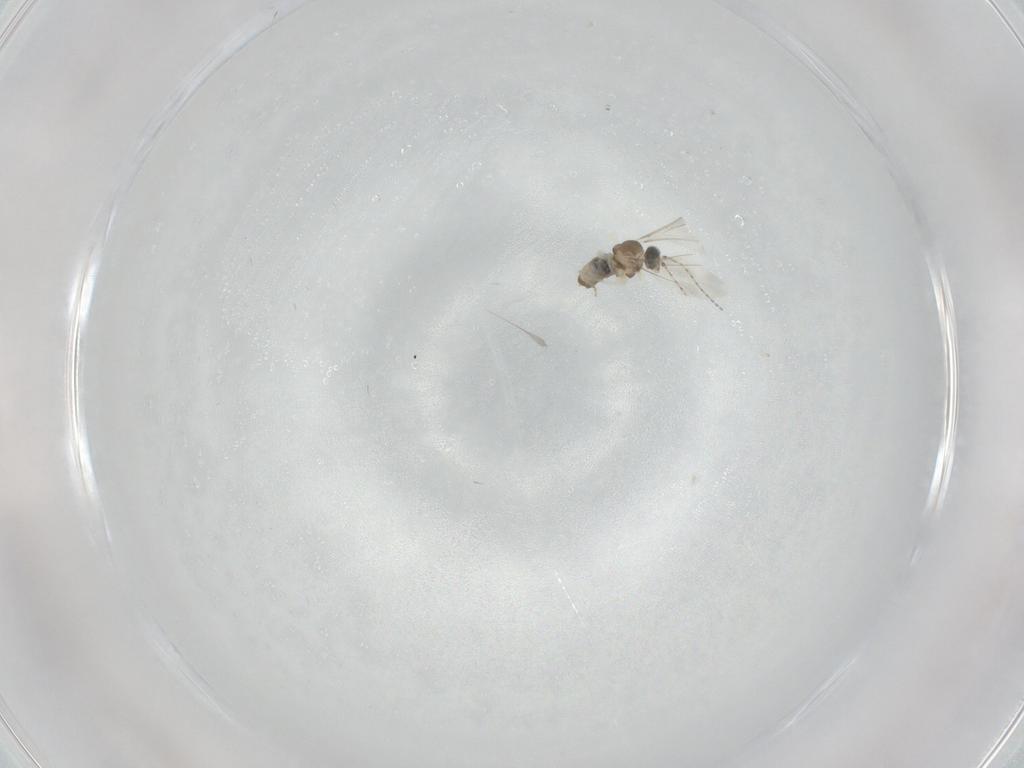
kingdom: Animalia
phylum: Arthropoda
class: Insecta
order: Diptera
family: Cecidomyiidae
